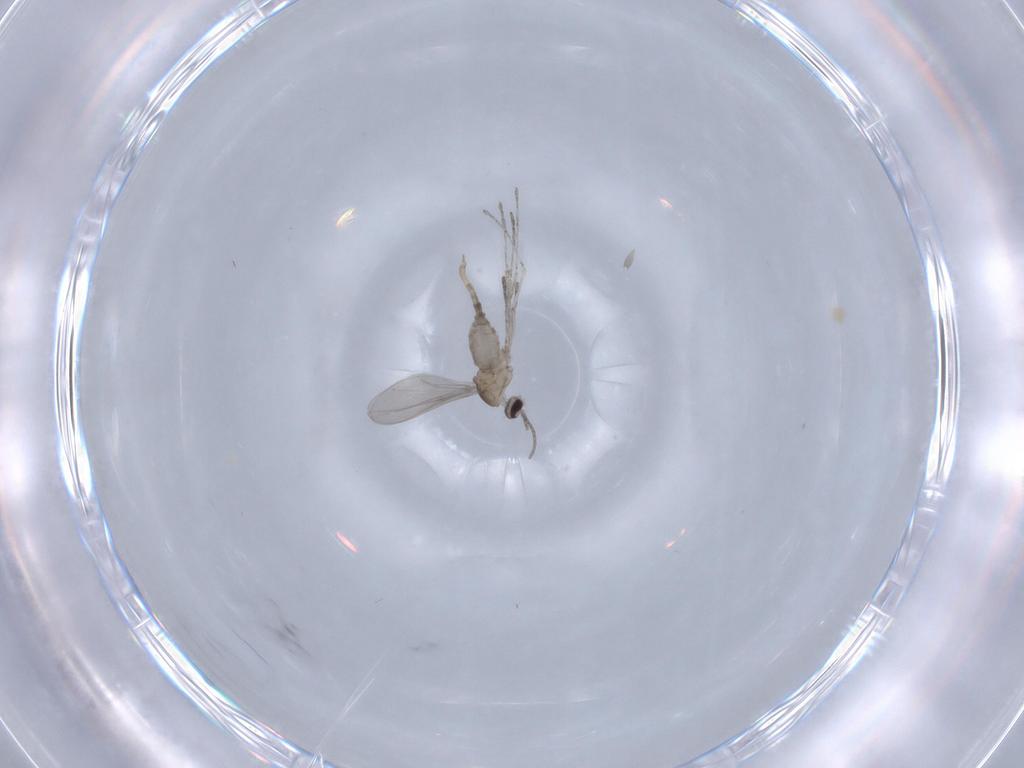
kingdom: Animalia
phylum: Arthropoda
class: Insecta
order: Diptera
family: Cecidomyiidae
